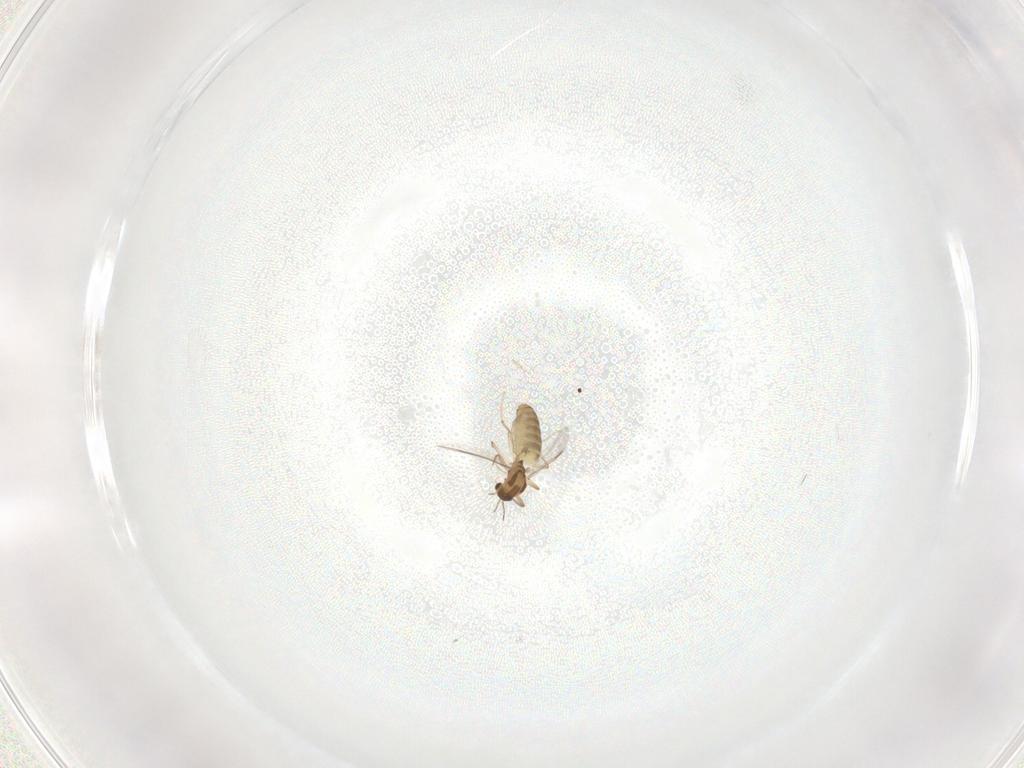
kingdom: Animalia
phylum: Arthropoda
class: Insecta
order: Diptera
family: Chironomidae
